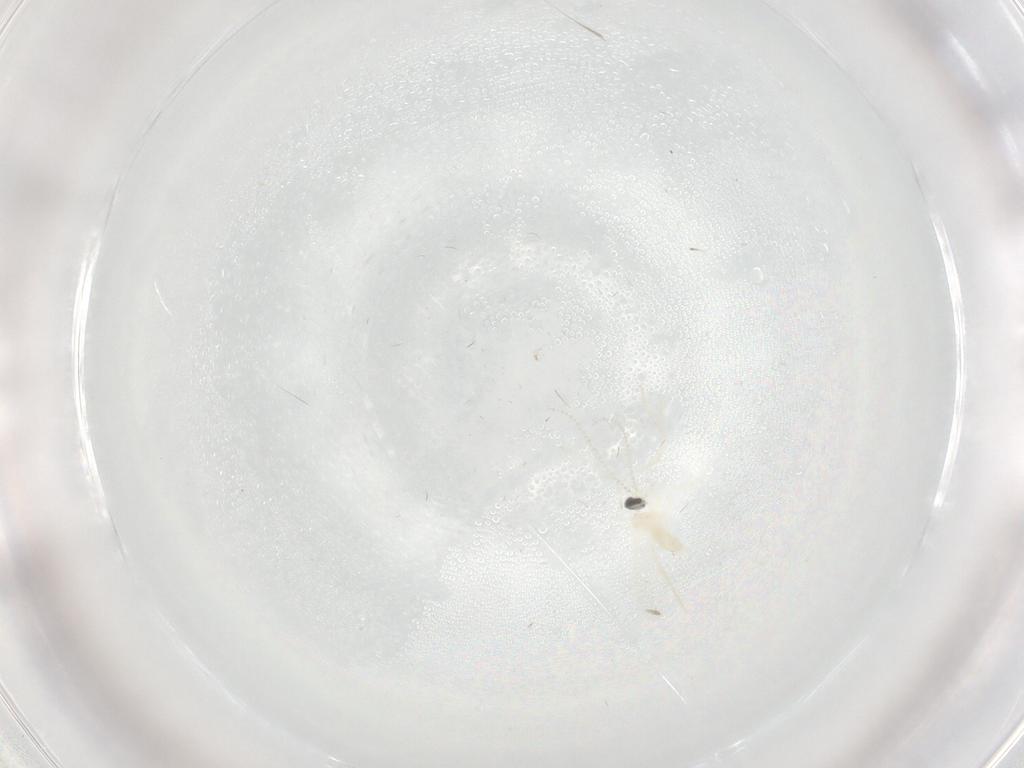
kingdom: Animalia
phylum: Arthropoda
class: Insecta
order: Diptera
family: Cecidomyiidae
